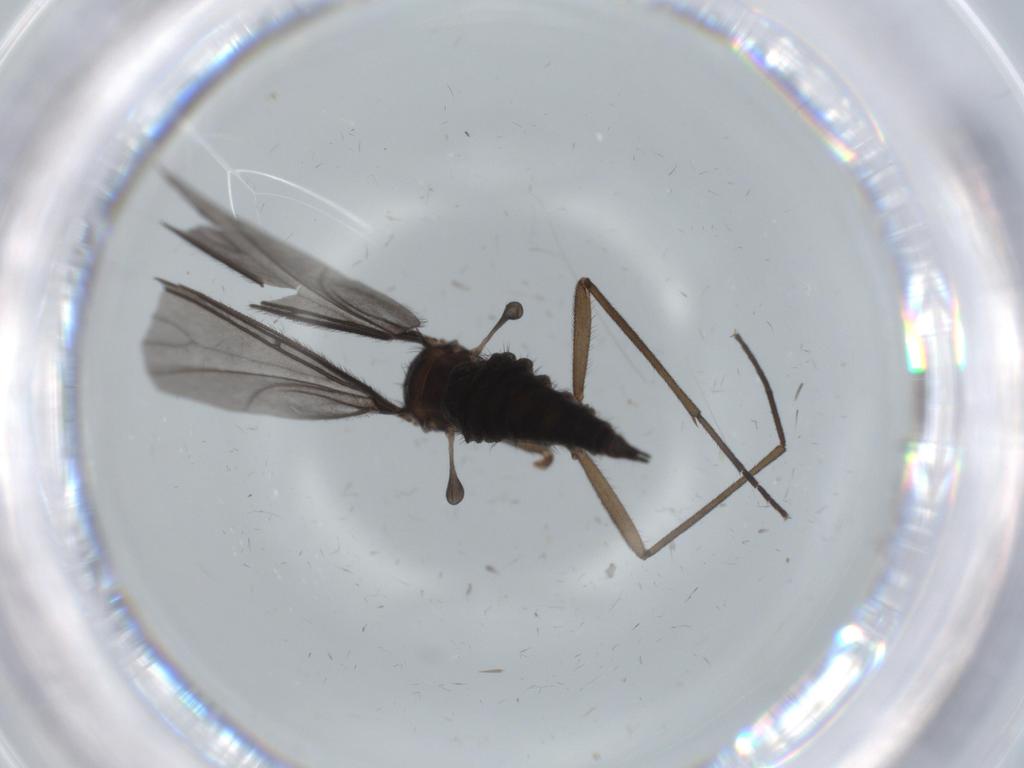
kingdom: Animalia
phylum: Arthropoda
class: Insecta
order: Diptera
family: Sciaridae
